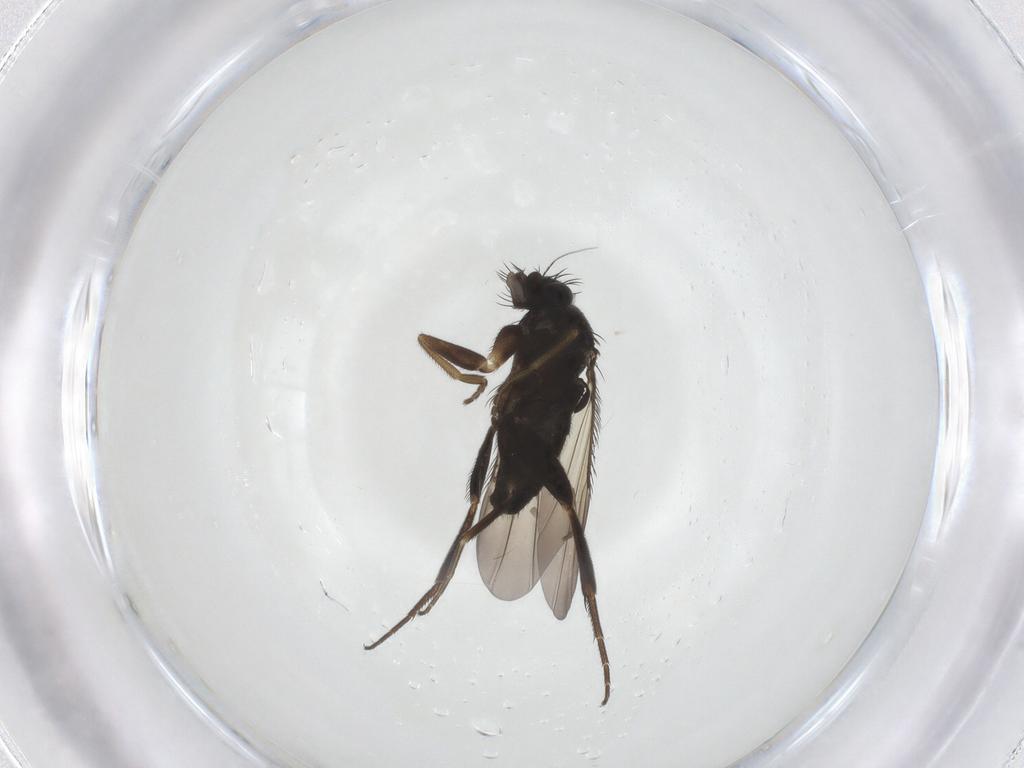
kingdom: Animalia
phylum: Arthropoda
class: Insecta
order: Diptera
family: Phoridae
